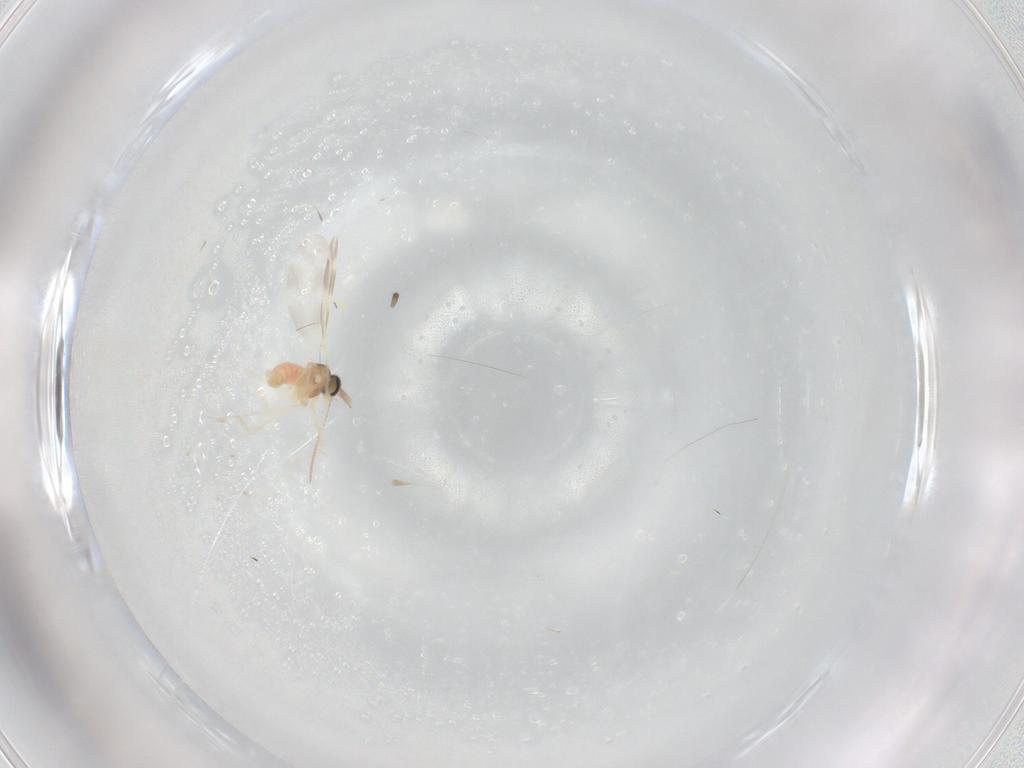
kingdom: Animalia
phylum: Arthropoda
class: Insecta
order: Diptera
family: Cecidomyiidae
